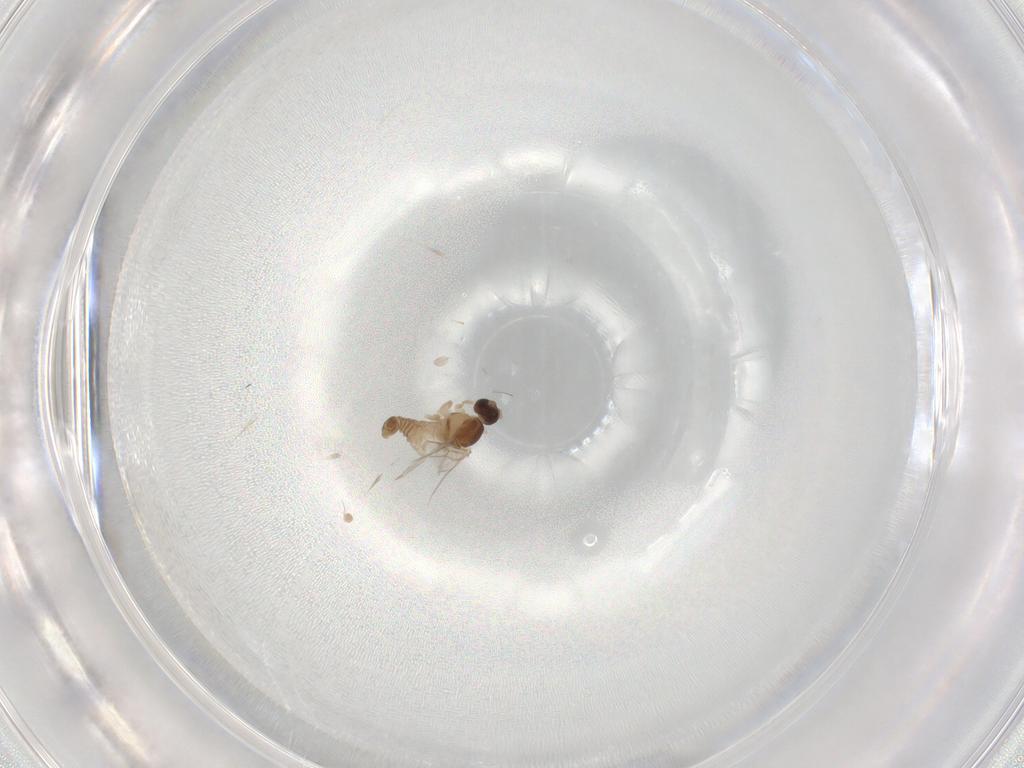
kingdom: Animalia
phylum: Arthropoda
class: Insecta
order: Diptera
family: Cecidomyiidae
